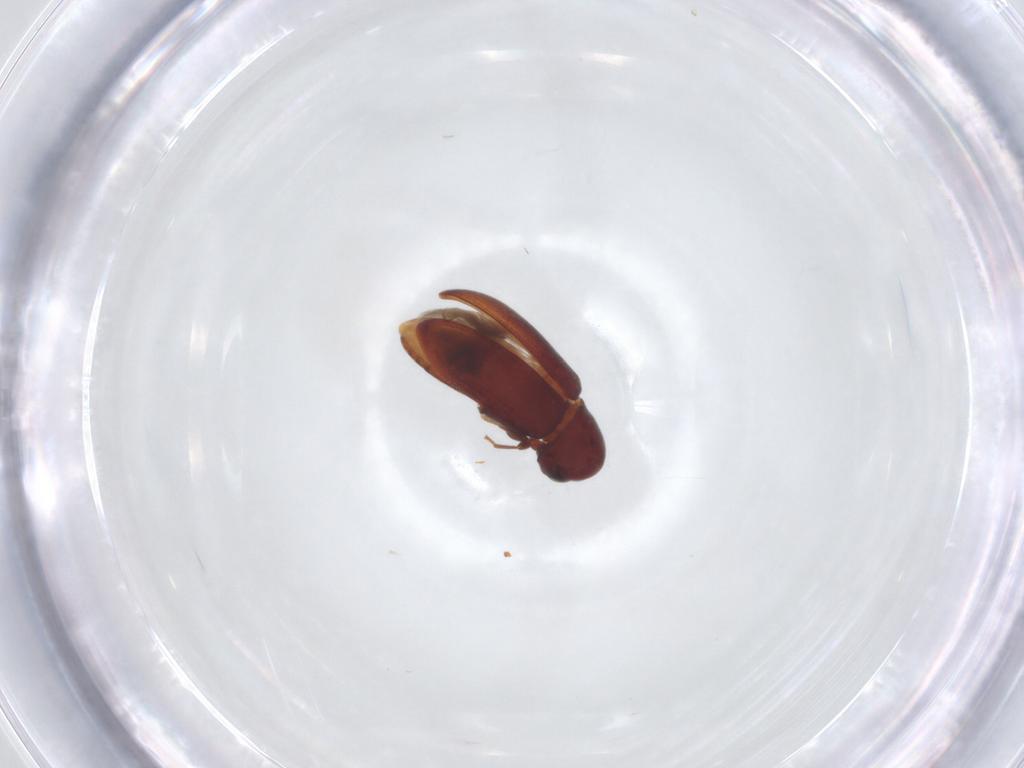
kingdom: Animalia
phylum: Arthropoda
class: Insecta
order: Coleoptera
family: Ptinidae
